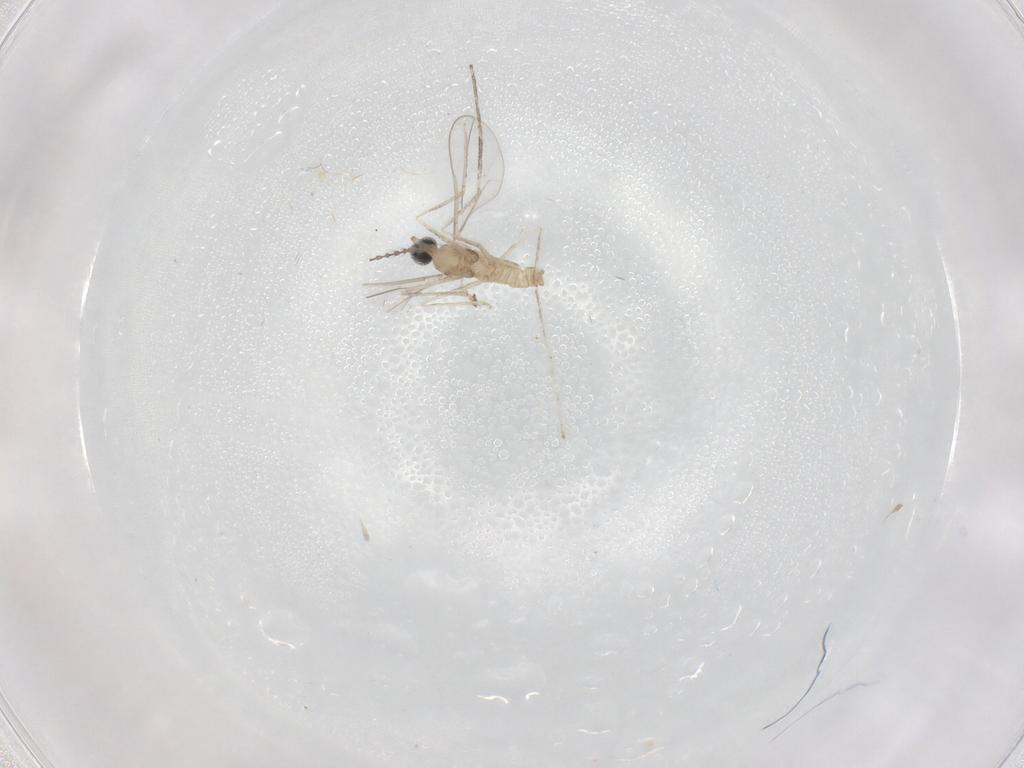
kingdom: Animalia
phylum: Arthropoda
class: Insecta
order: Diptera
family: Cecidomyiidae
